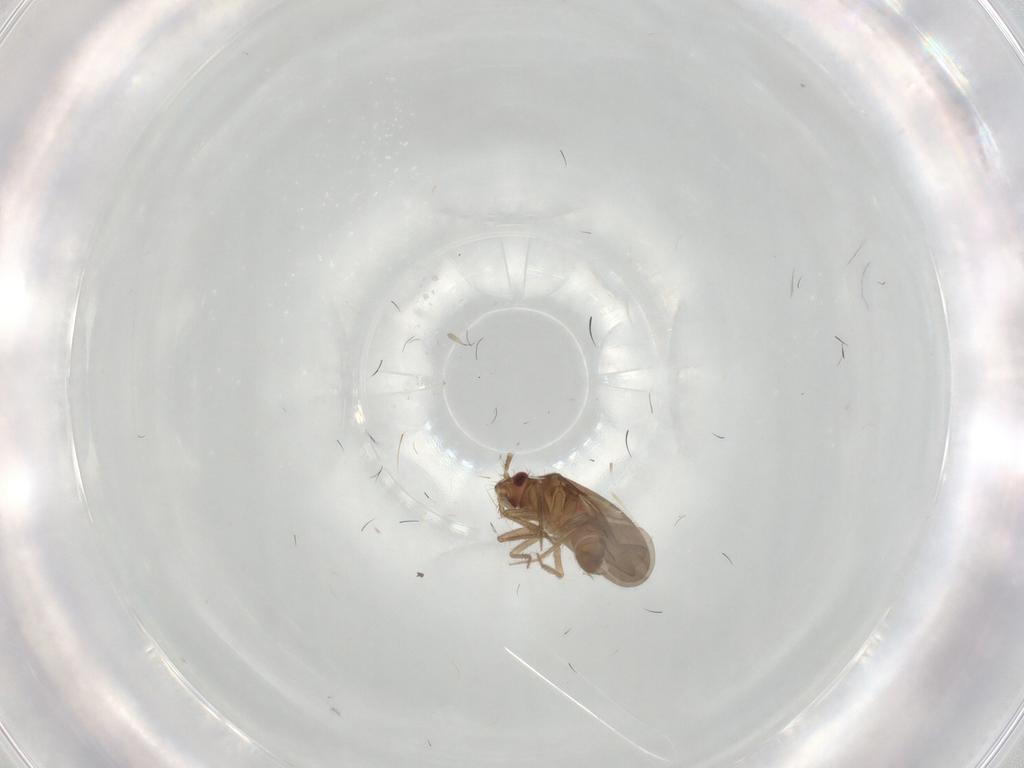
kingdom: Animalia
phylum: Arthropoda
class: Insecta
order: Hemiptera
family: Ceratocombidae
